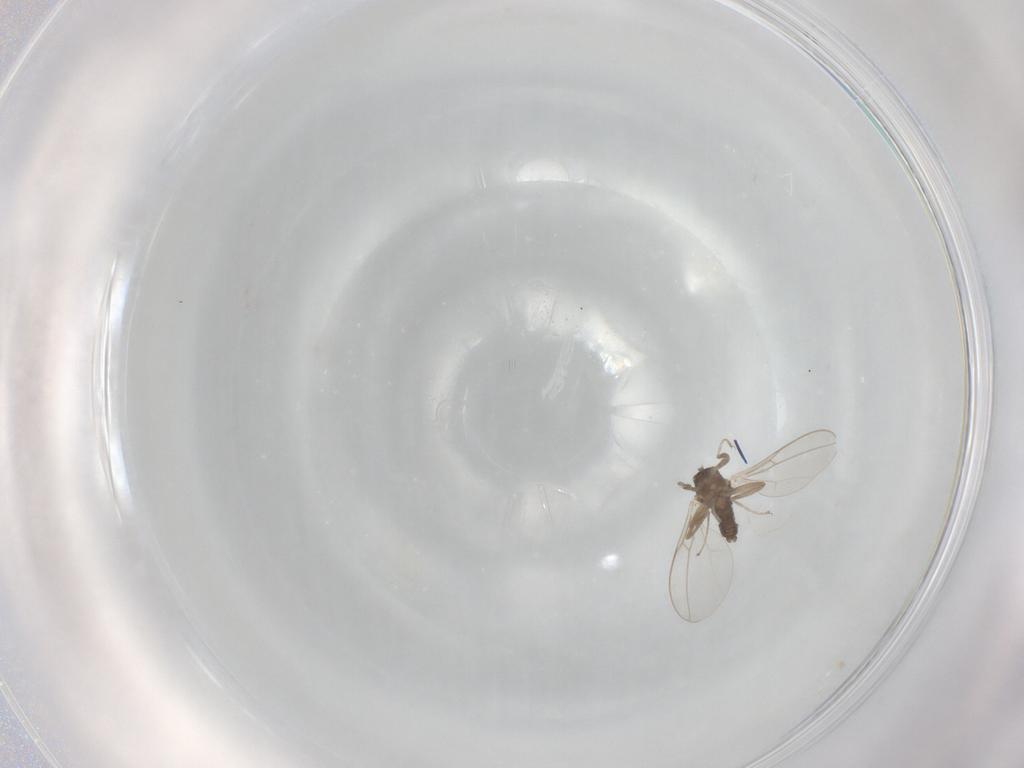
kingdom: Animalia
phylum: Arthropoda
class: Insecta
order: Diptera
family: Cecidomyiidae
